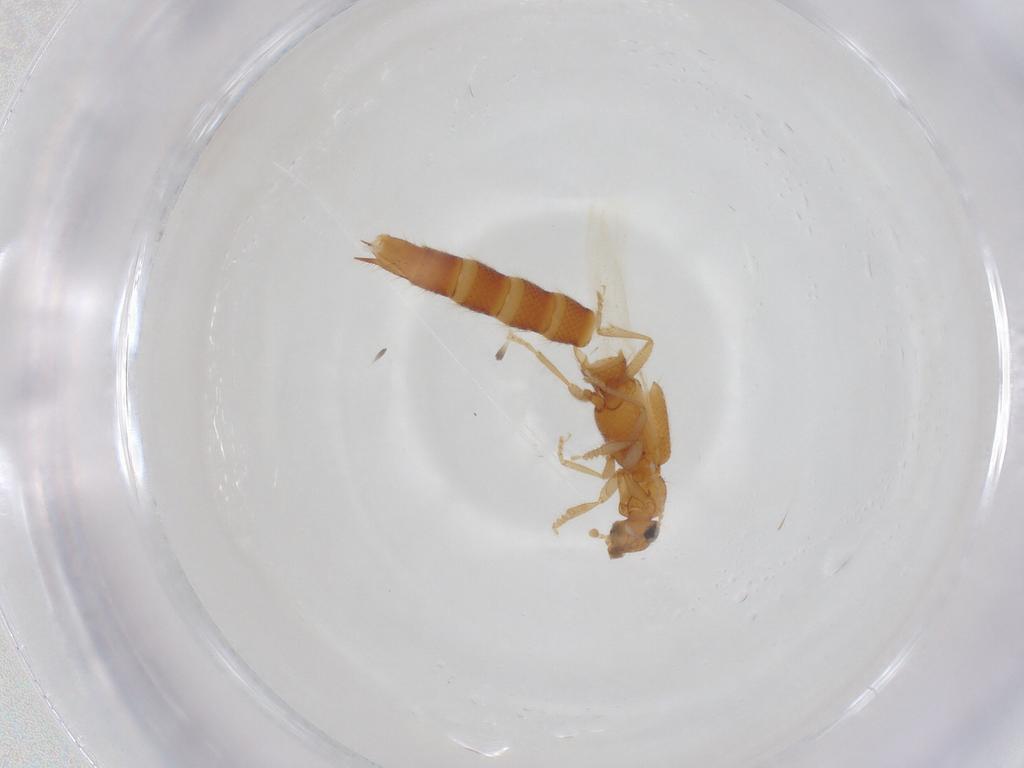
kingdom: Animalia
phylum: Arthropoda
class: Insecta
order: Coleoptera
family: Staphylinidae
